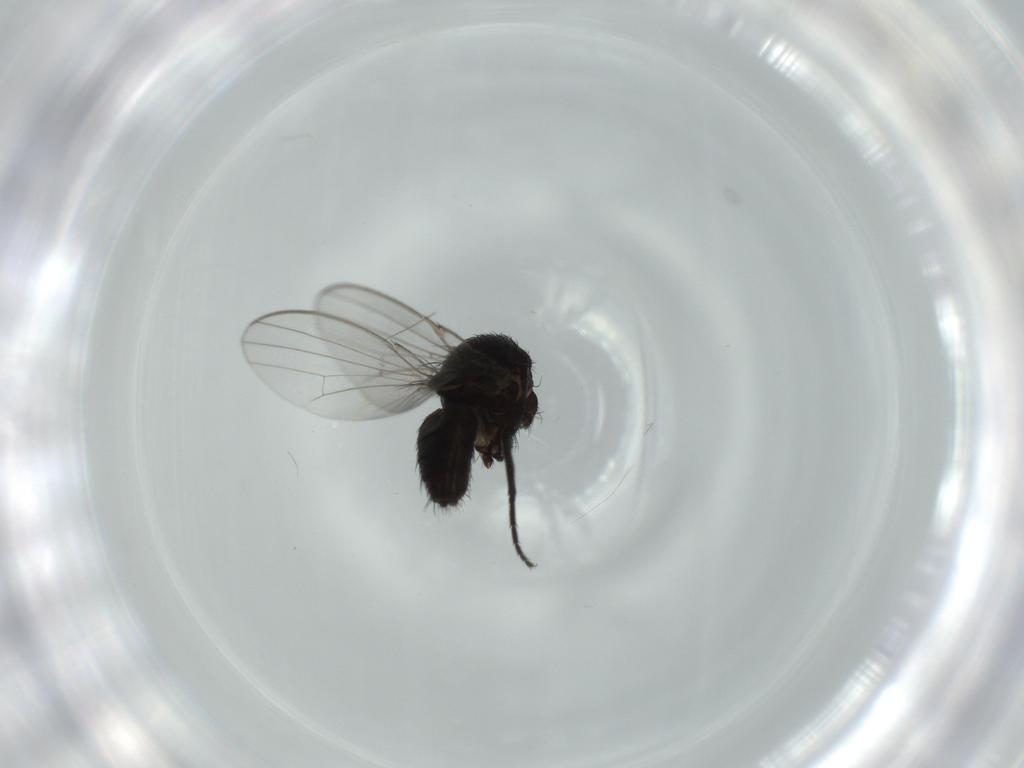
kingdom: Animalia
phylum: Arthropoda
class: Insecta
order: Diptera
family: Milichiidae
